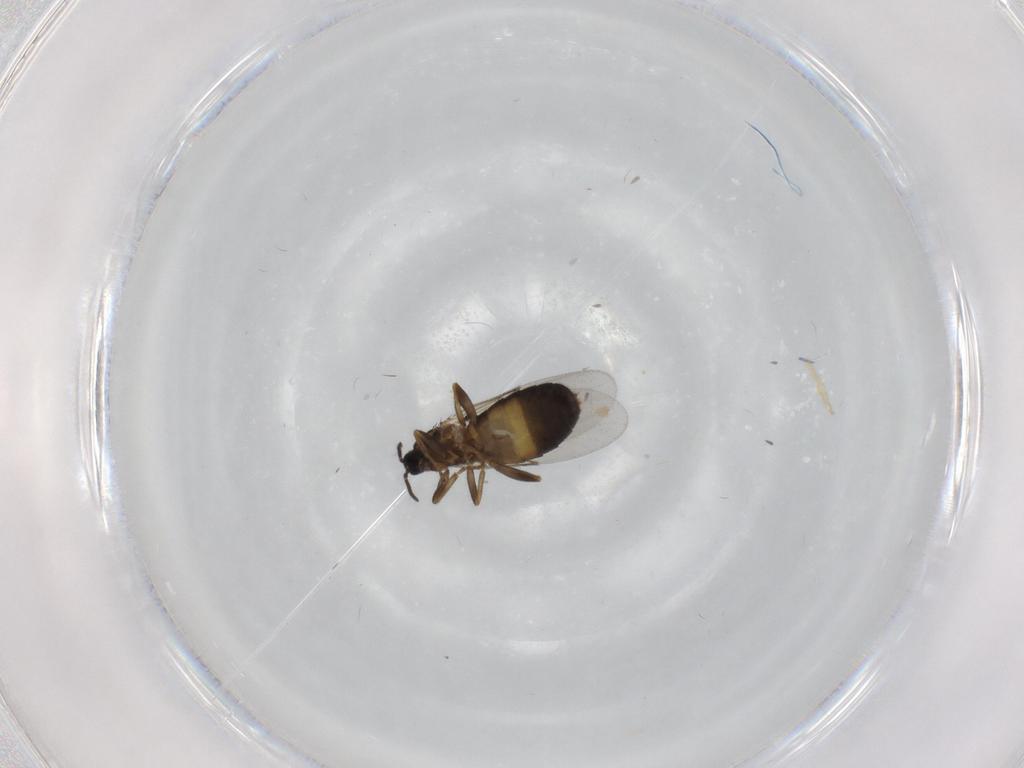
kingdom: Animalia
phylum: Arthropoda
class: Insecta
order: Diptera
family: Scatopsidae
